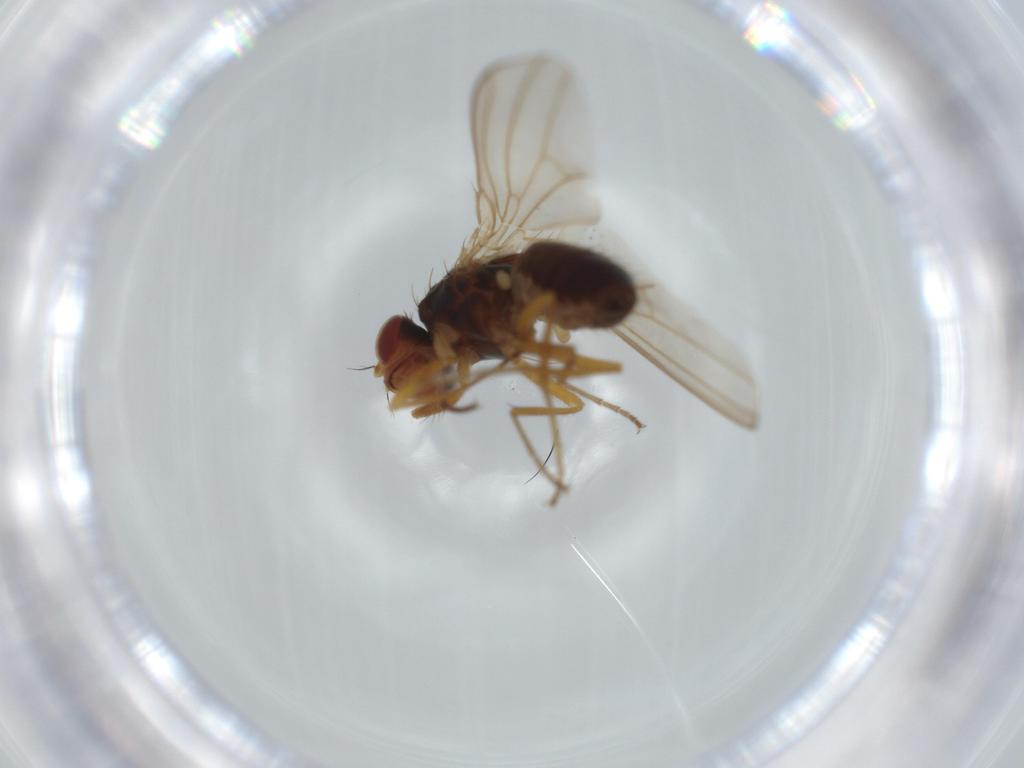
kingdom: Animalia
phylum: Arthropoda
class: Insecta
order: Diptera
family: Drosophilidae
